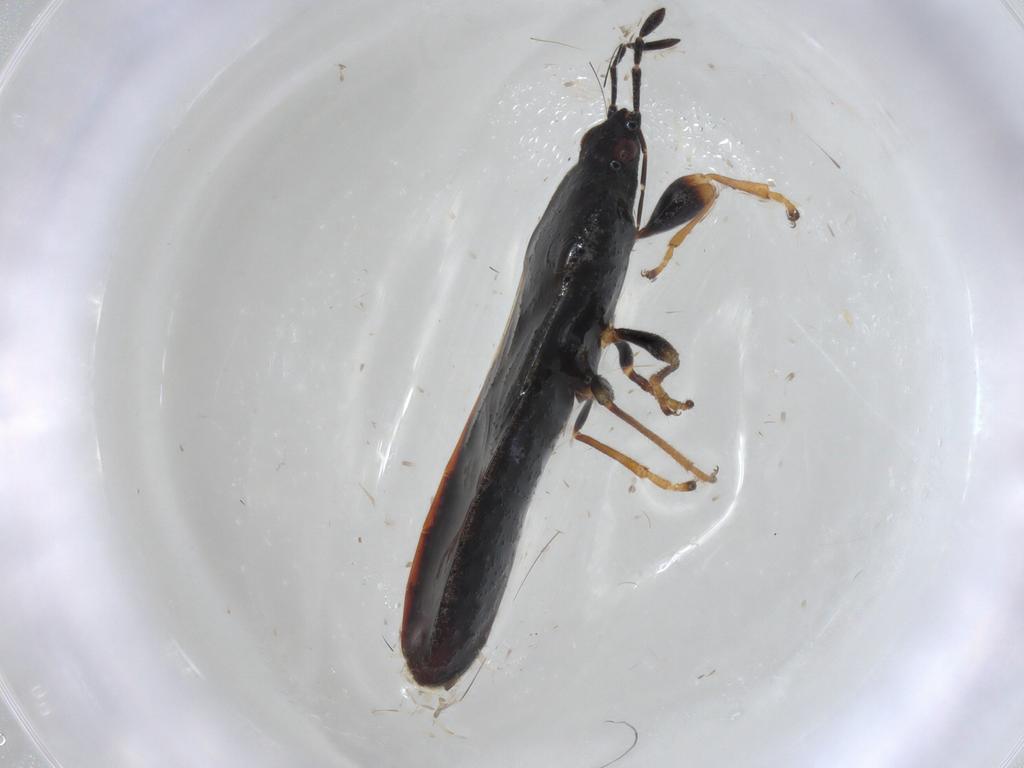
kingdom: Animalia
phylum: Arthropoda
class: Insecta
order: Hemiptera
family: Blissidae
